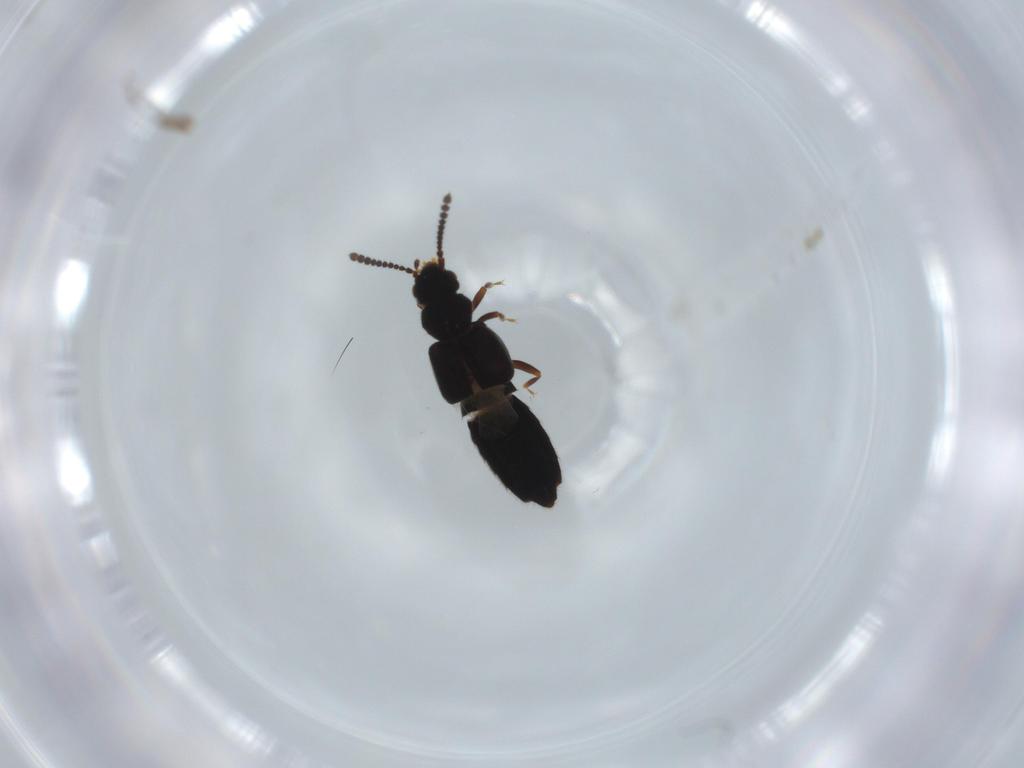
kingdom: Animalia
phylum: Arthropoda
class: Insecta
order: Coleoptera
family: Staphylinidae
